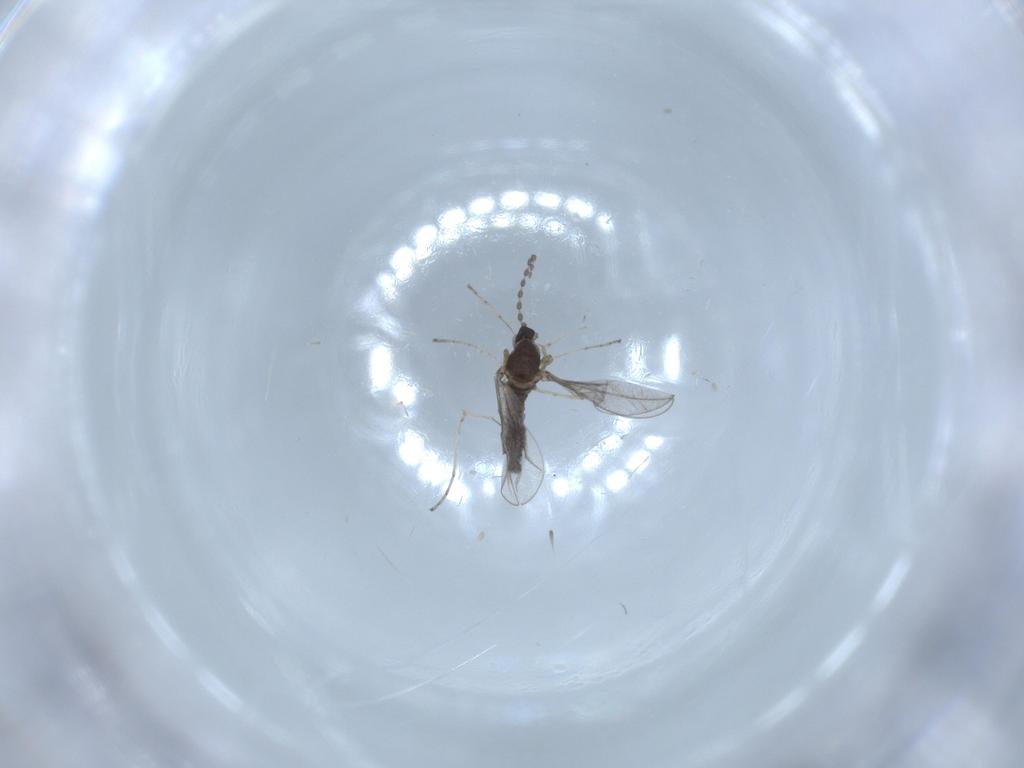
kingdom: Animalia
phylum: Arthropoda
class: Insecta
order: Diptera
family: Cecidomyiidae
